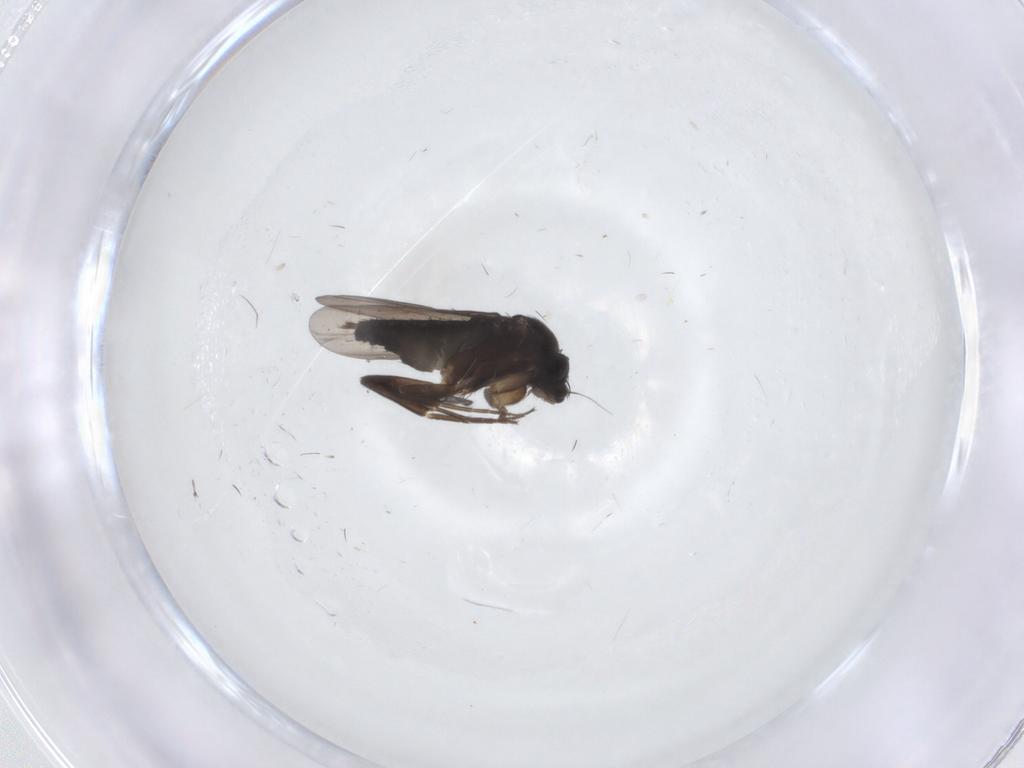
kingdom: Animalia
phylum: Arthropoda
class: Insecta
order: Diptera
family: Phoridae
